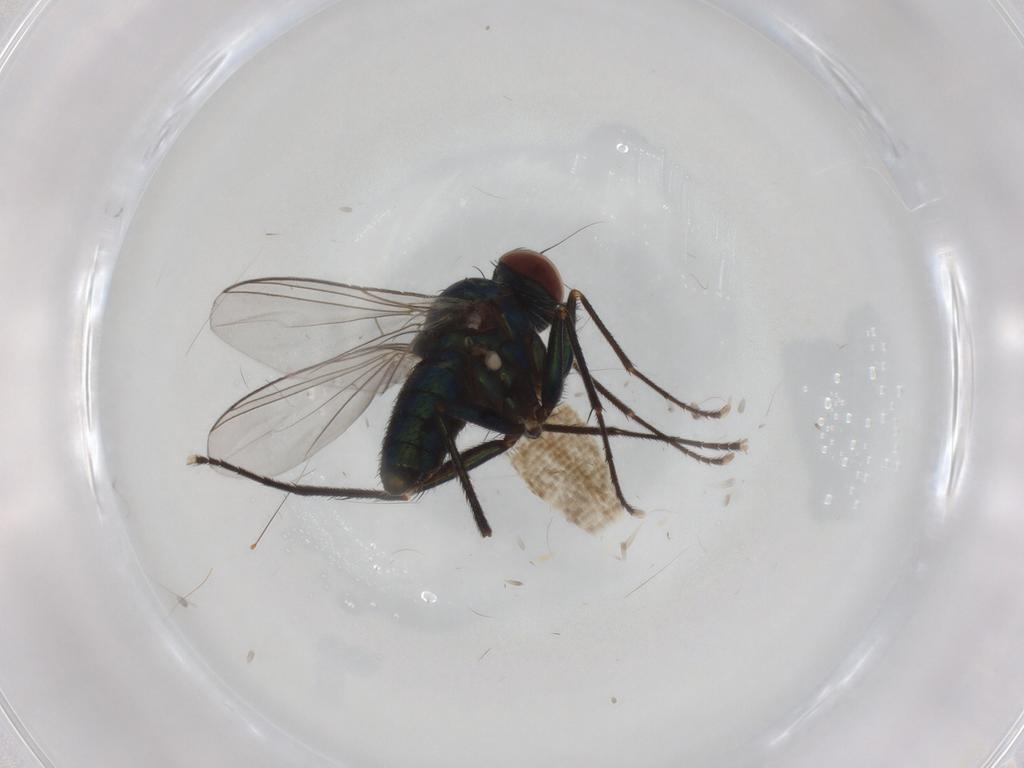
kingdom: Animalia
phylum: Arthropoda
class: Insecta
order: Diptera
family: Dolichopodidae
